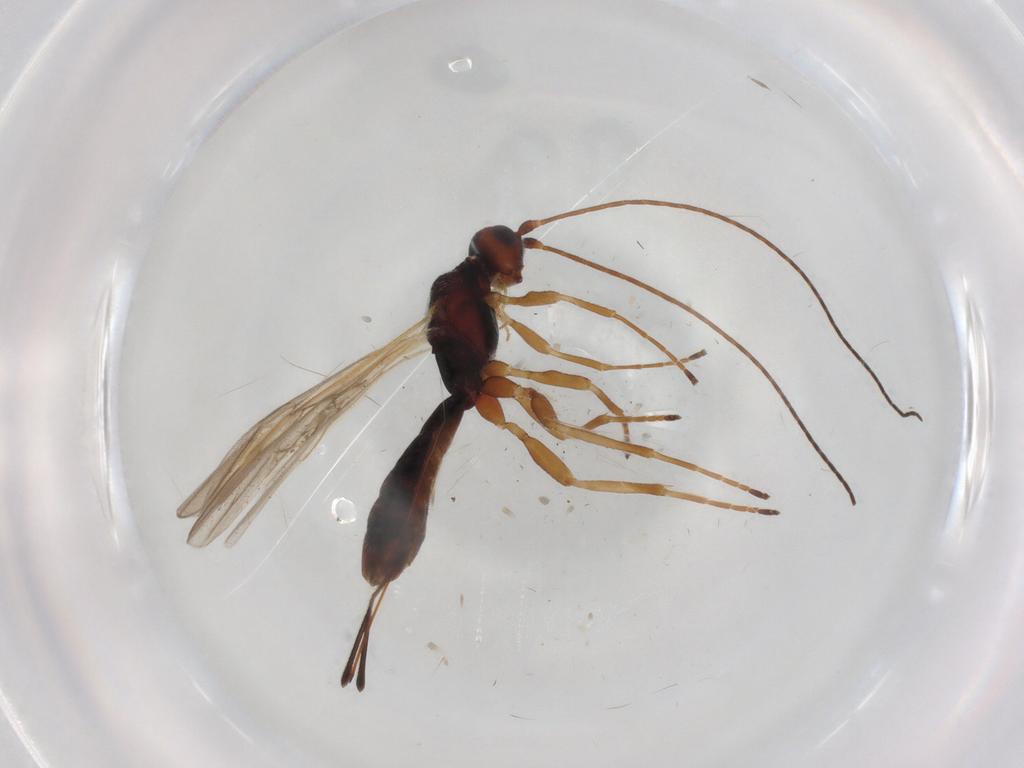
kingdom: Animalia
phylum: Arthropoda
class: Insecta
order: Hymenoptera
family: Braconidae
